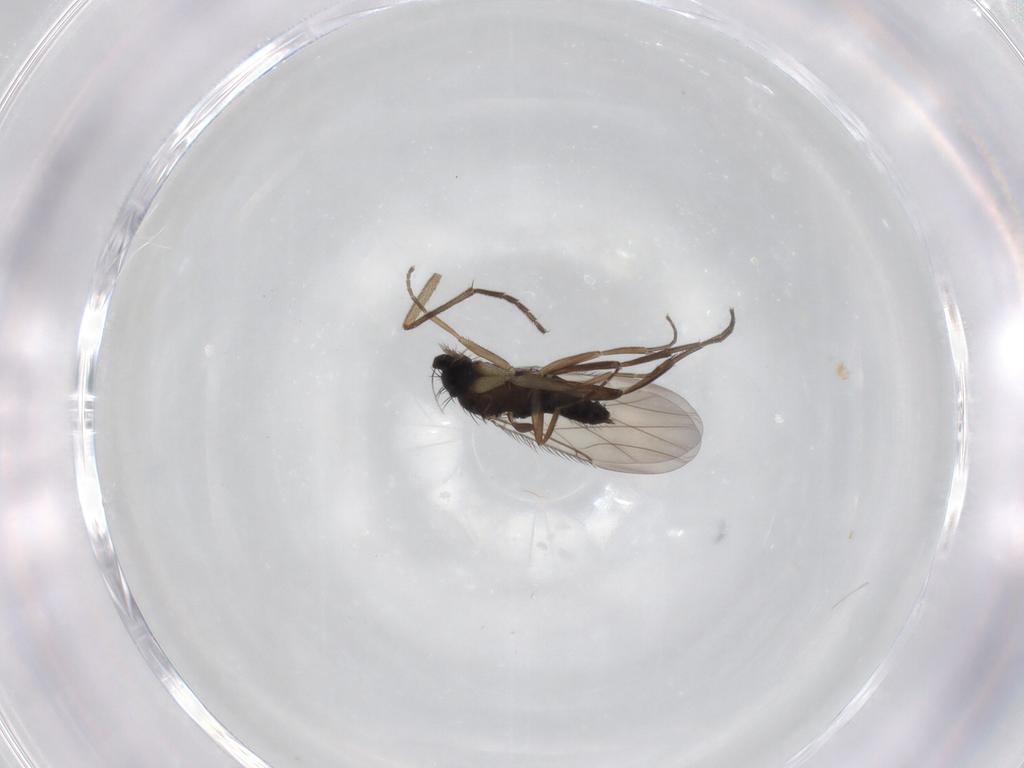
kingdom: Animalia
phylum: Arthropoda
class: Insecta
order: Diptera
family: Phoridae
